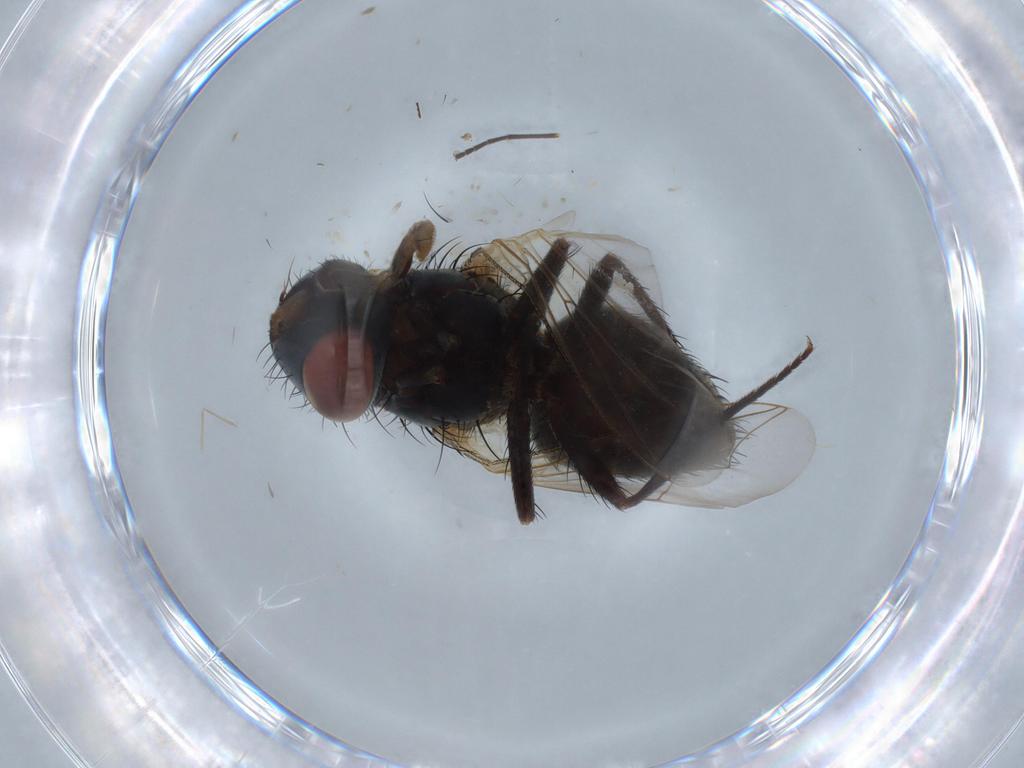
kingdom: Animalia
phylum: Arthropoda
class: Insecta
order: Diptera
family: Sarcophagidae
